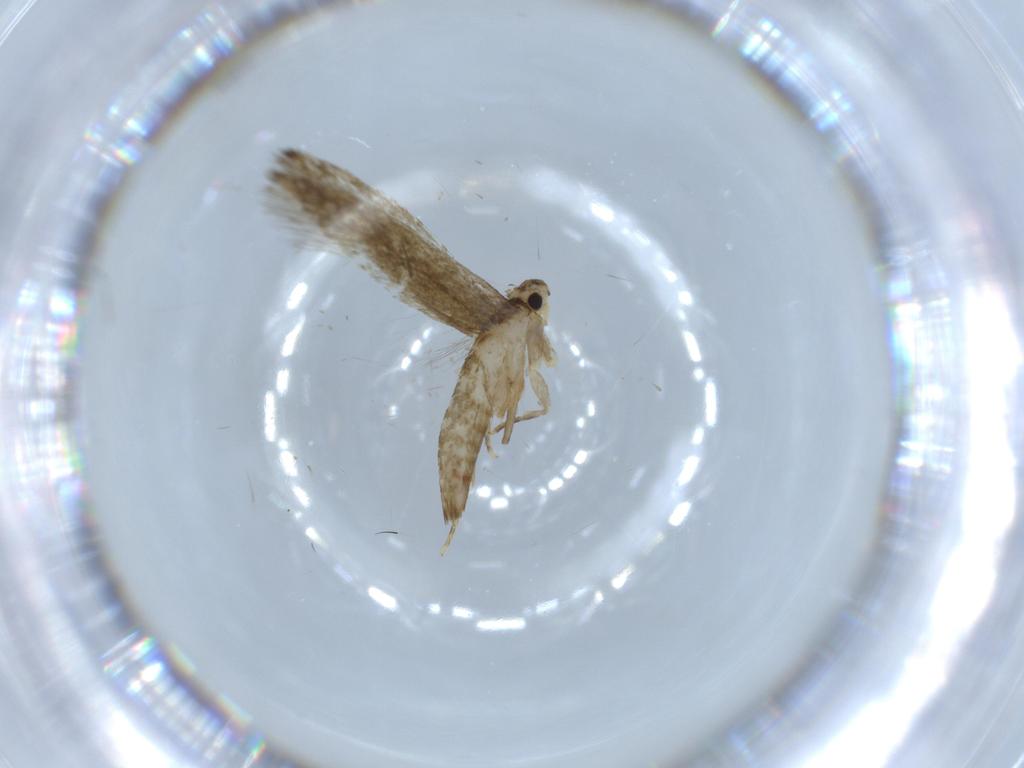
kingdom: Animalia
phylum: Arthropoda
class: Insecta
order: Lepidoptera
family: Tineidae
